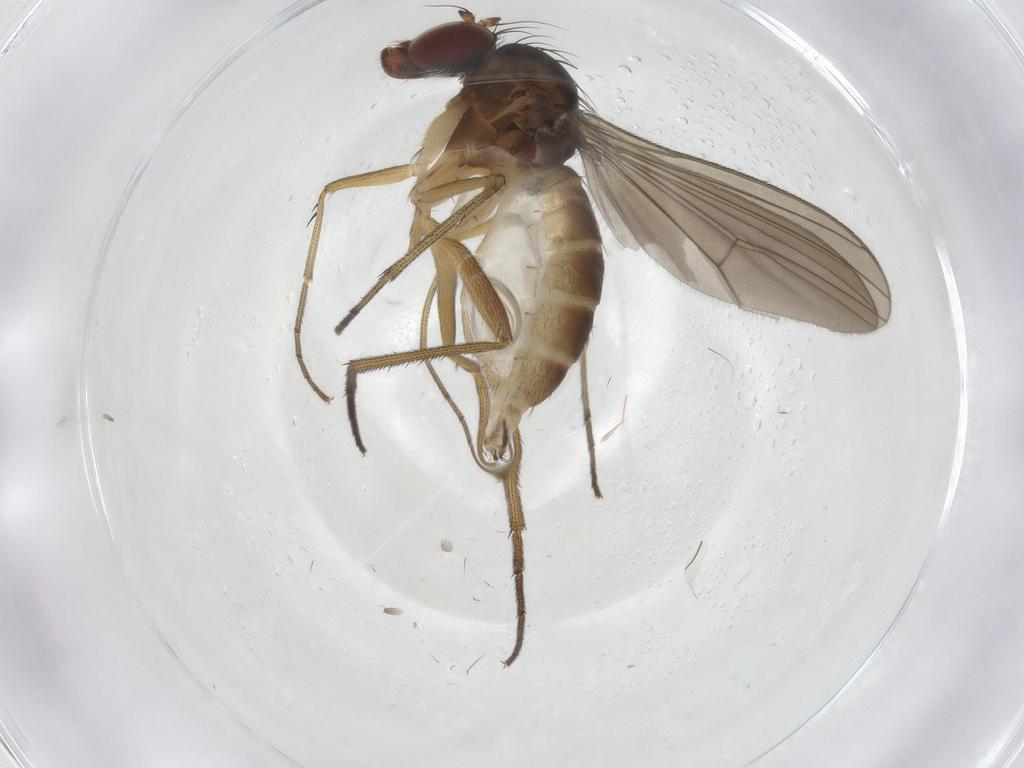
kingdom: Animalia
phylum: Arthropoda
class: Insecta
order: Diptera
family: Dolichopodidae
